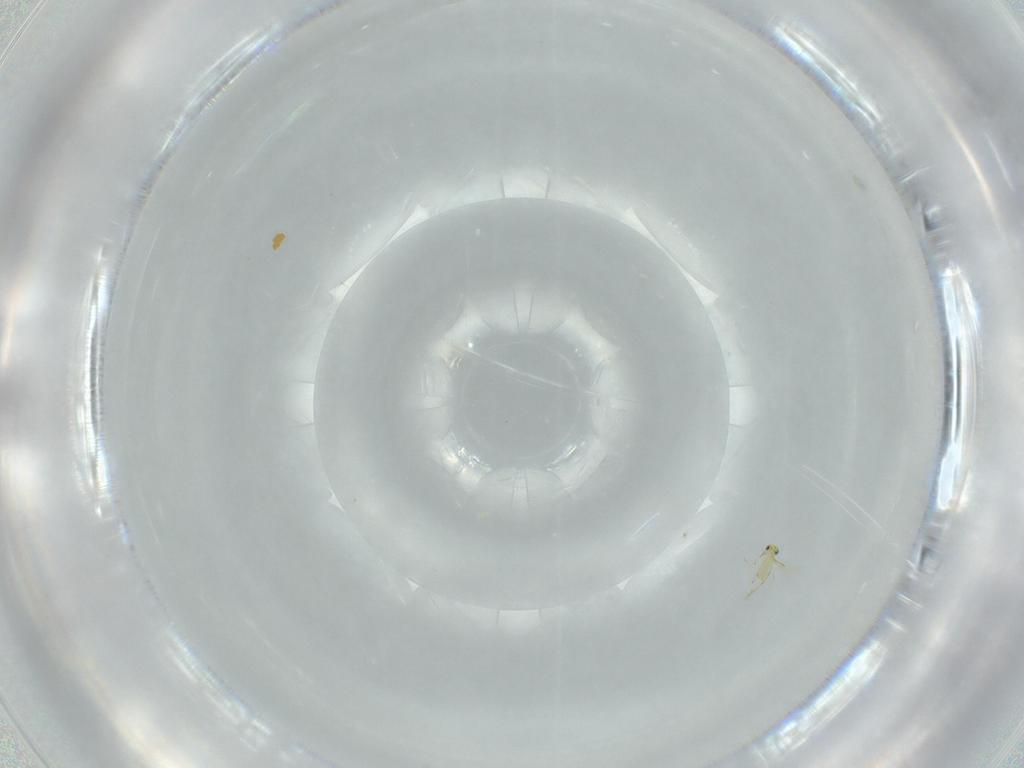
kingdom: Animalia
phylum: Arthropoda
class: Insecta
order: Hymenoptera
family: Trichogrammatidae
